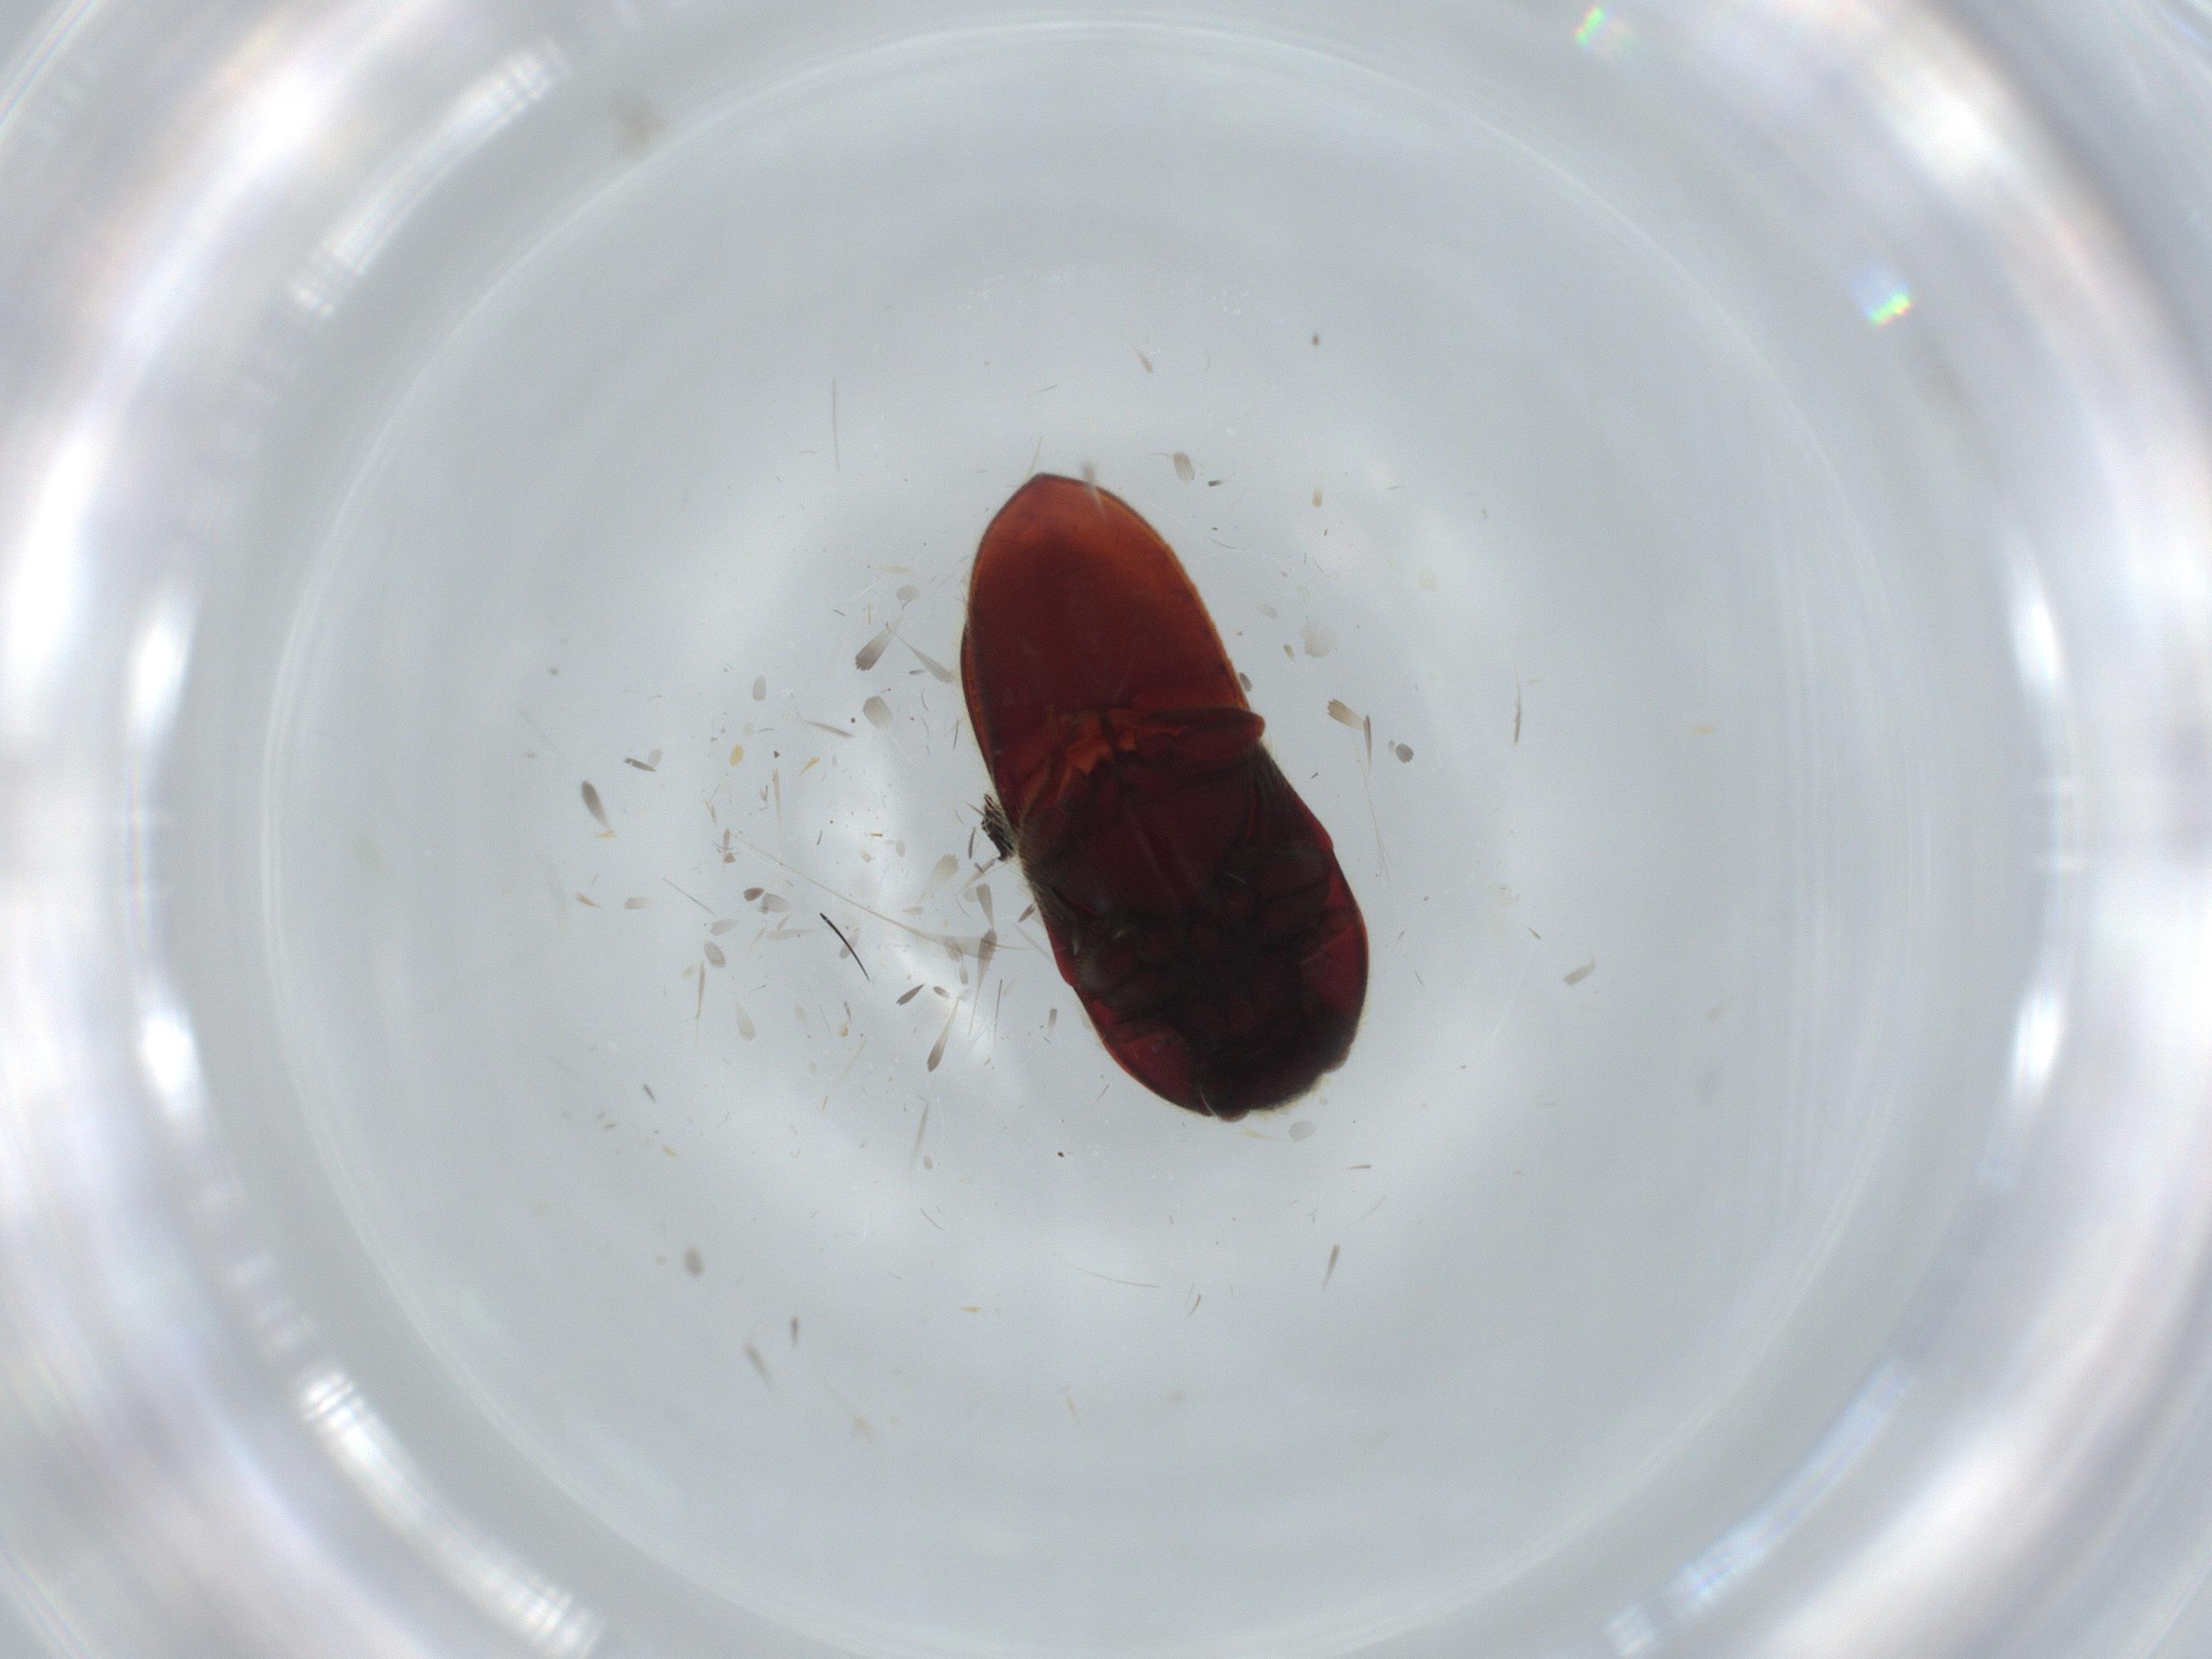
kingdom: Animalia
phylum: Arthropoda
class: Insecta
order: Coleoptera
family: Throscidae
